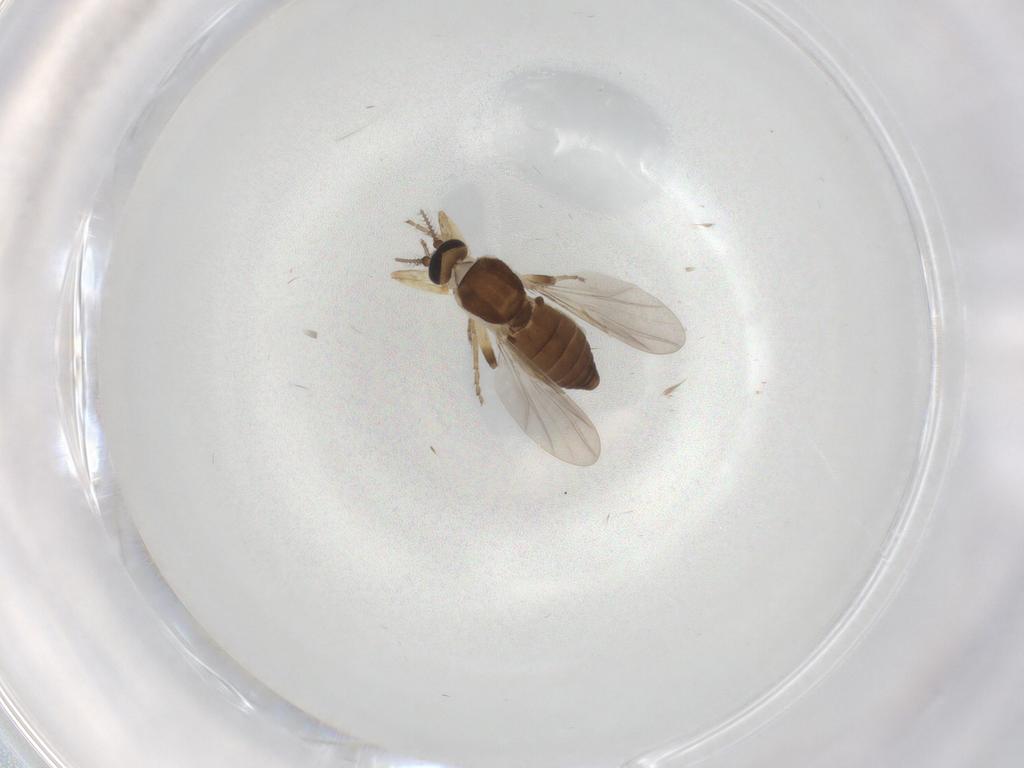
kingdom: Animalia
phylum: Arthropoda
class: Insecta
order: Diptera
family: Ceratopogonidae
